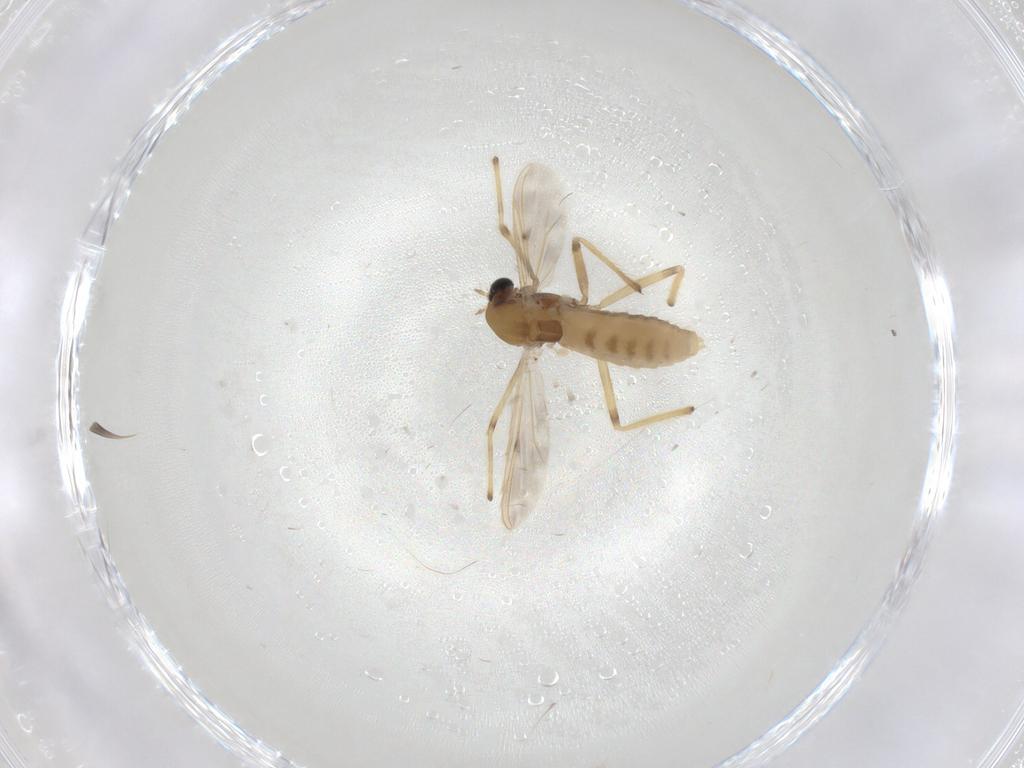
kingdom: Animalia
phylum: Arthropoda
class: Insecta
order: Diptera
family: Chironomidae
